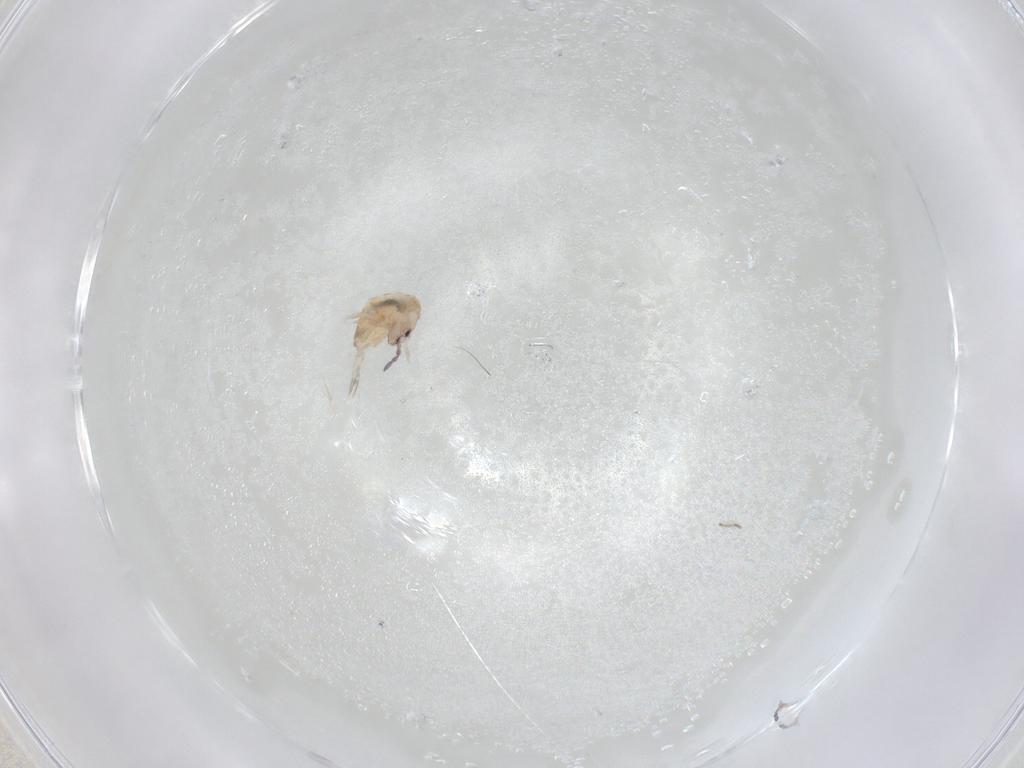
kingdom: Animalia
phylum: Arthropoda
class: Collembola
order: Entomobryomorpha
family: Entomobryidae
